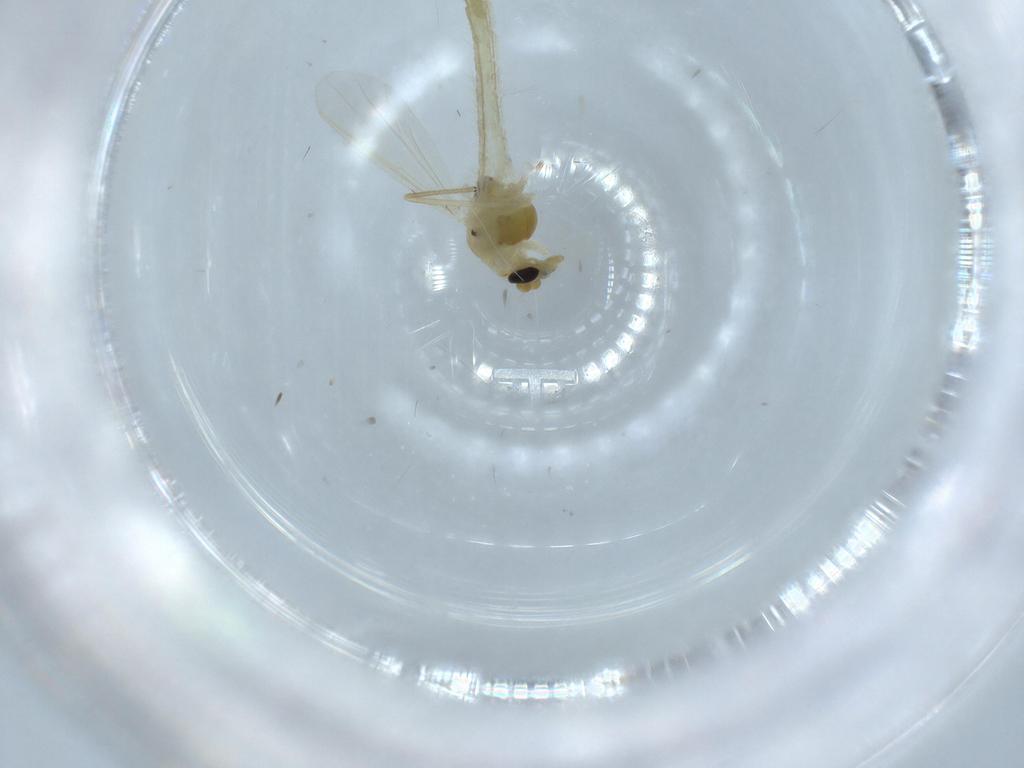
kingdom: Animalia
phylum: Arthropoda
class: Insecta
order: Diptera
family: Chironomidae
